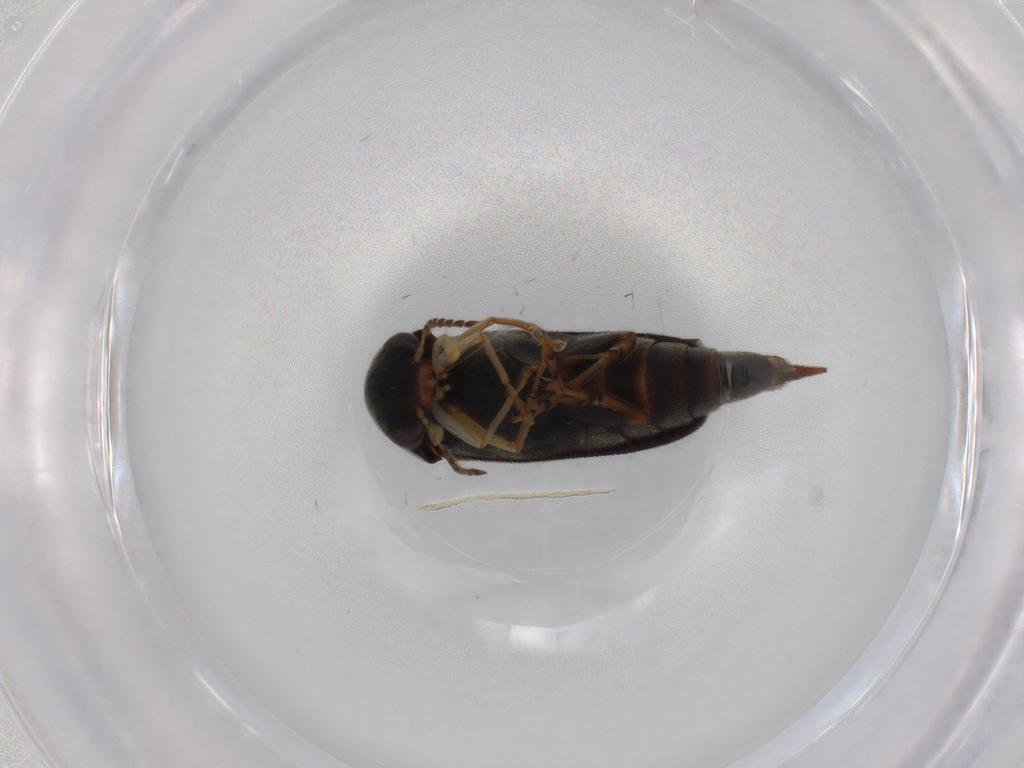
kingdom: Animalia
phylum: Arthropoda
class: Insecta
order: Coleoptera
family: Mordellidae
